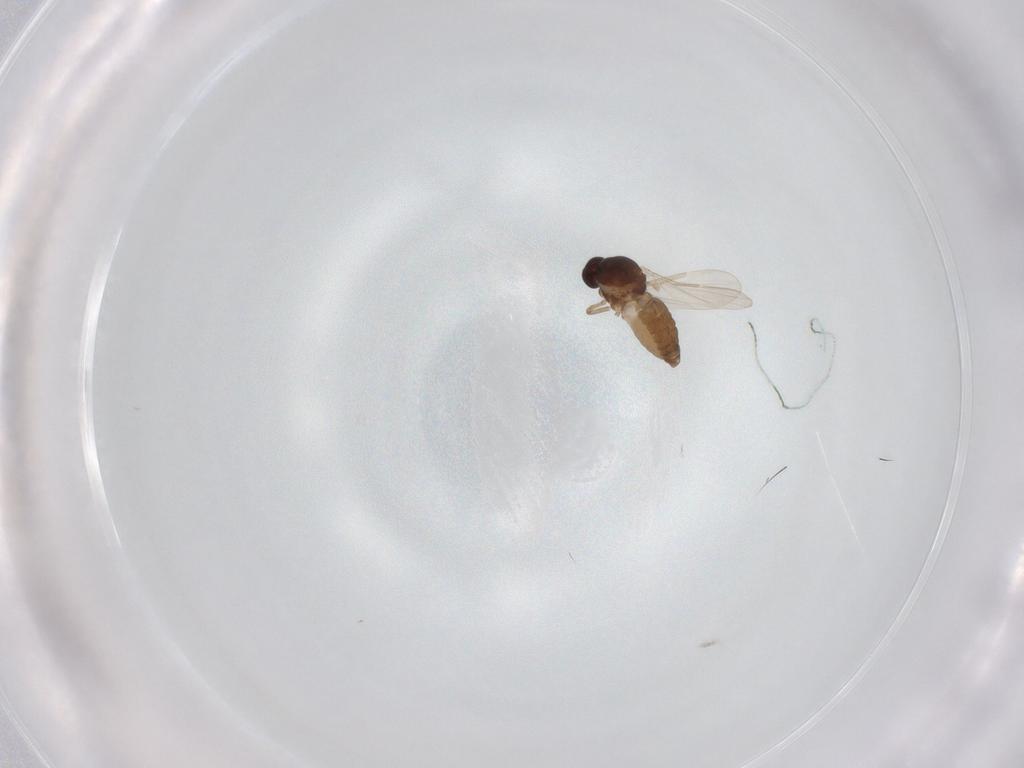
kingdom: Animalia
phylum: Arthropoda
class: Insecta
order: Diptera
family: Ceratopogonidae
